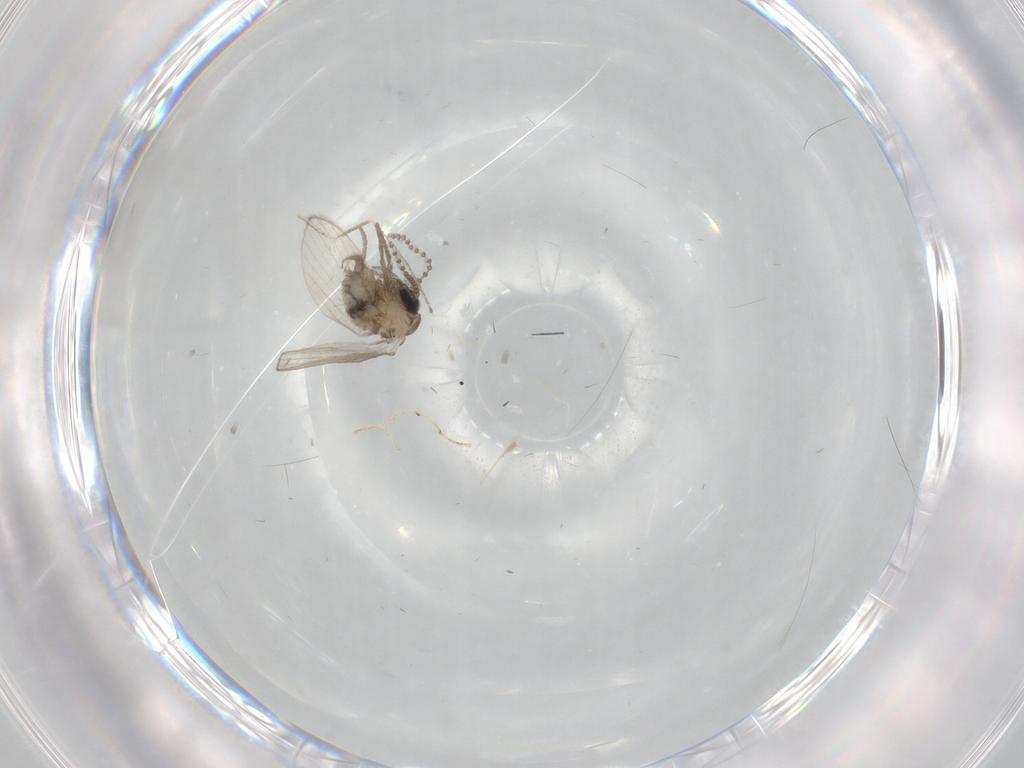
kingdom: Animalia
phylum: Arthropoda
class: Insecta
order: Diptera
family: Psychodidae
